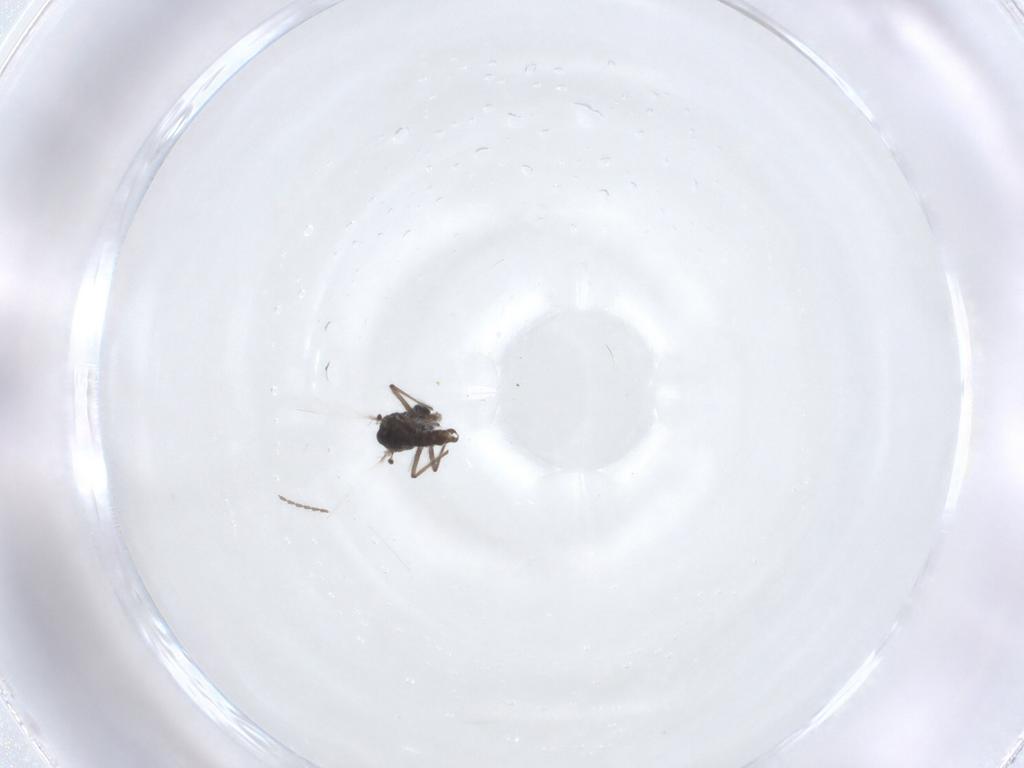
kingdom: Animalia
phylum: Arthropoda
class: Insecta
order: Diptera
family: Chironomidae
